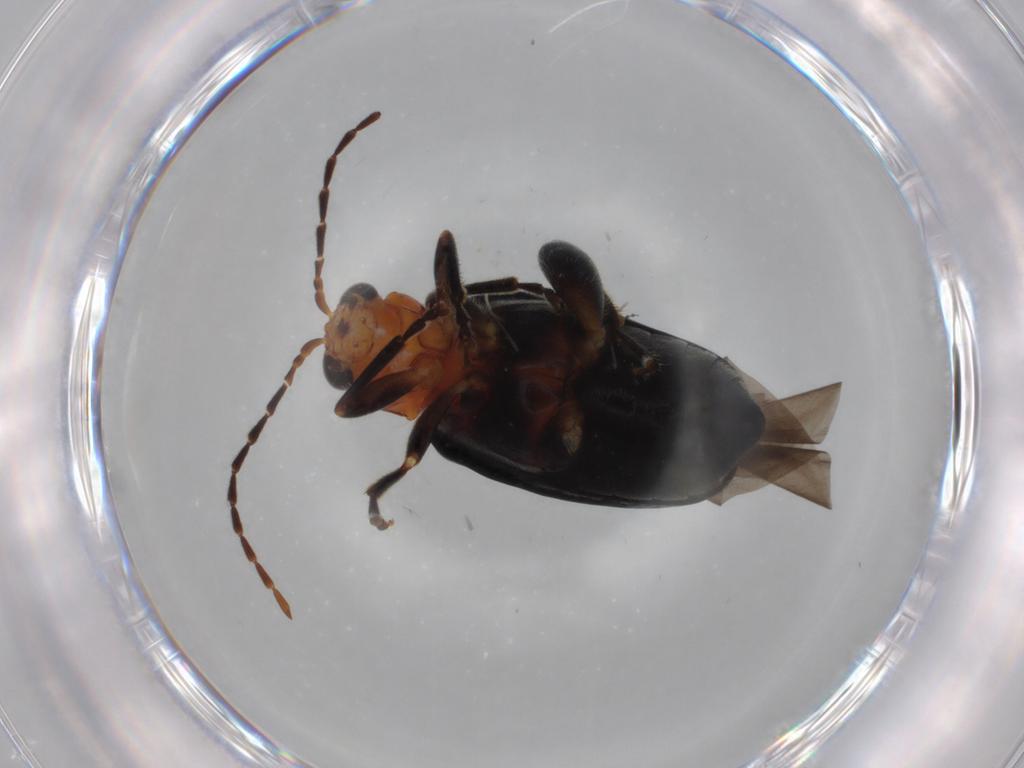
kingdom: Animalia
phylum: Arthropoda
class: Insecta
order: Coleoptera
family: Chrysomelidae
